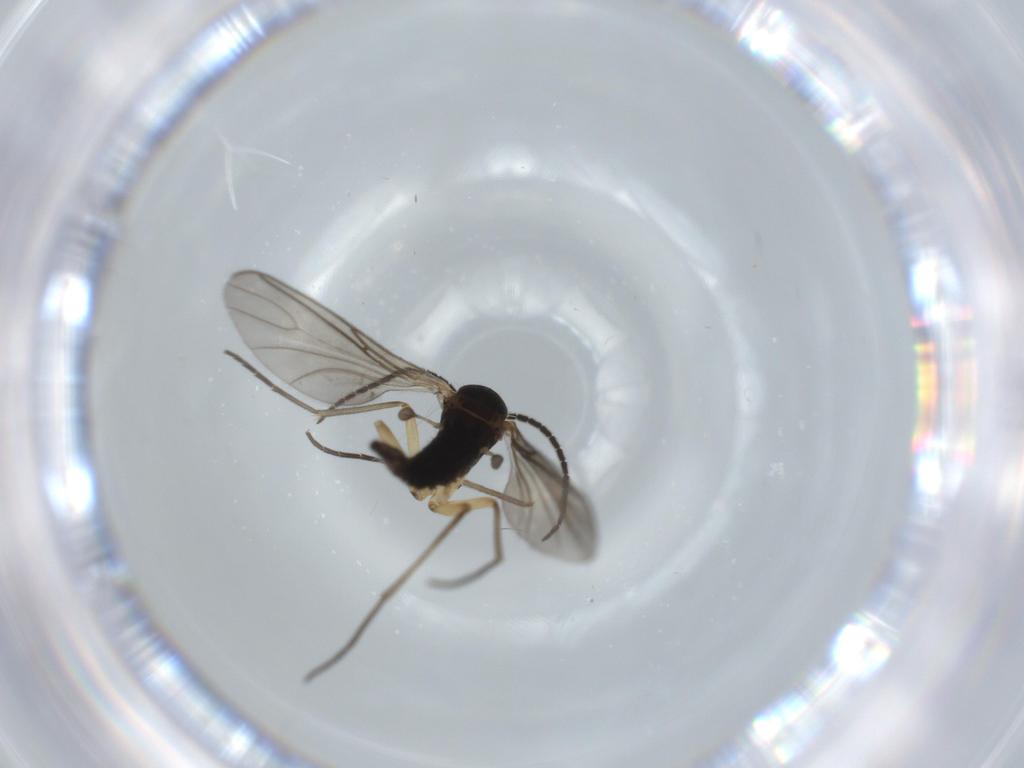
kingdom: Animalia
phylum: Arthropoda
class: Insecta
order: Diptera
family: Sciaridae
